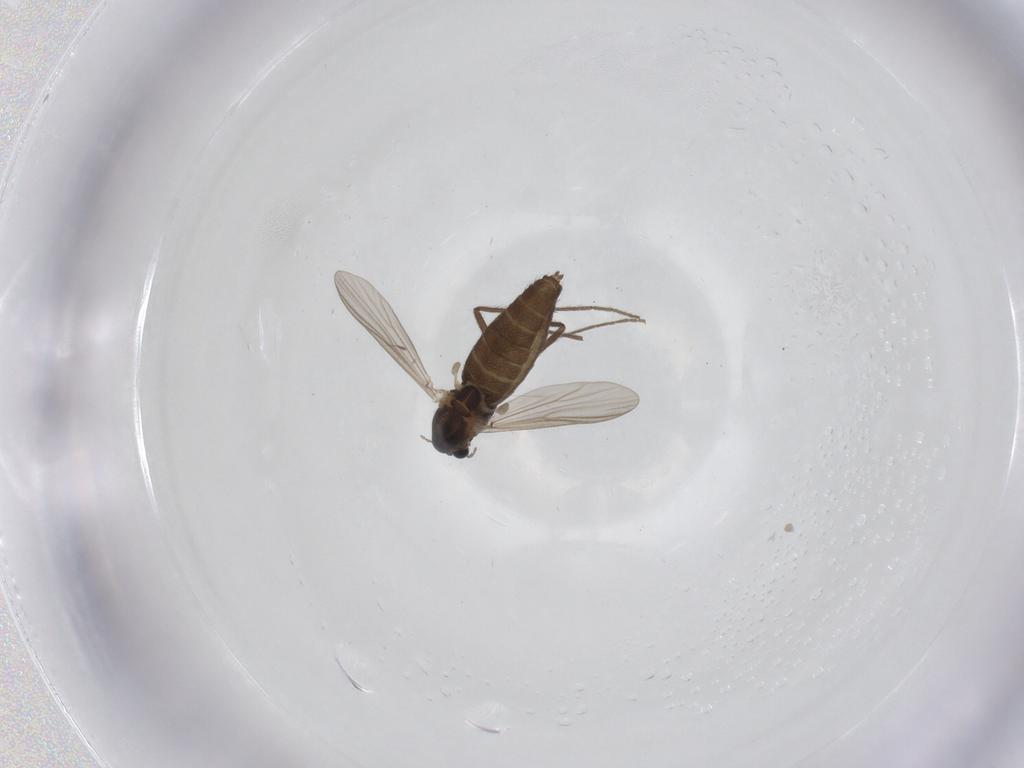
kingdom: Animalia
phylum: Arthropoda
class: Insecta
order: Diptera
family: Chironomidae
